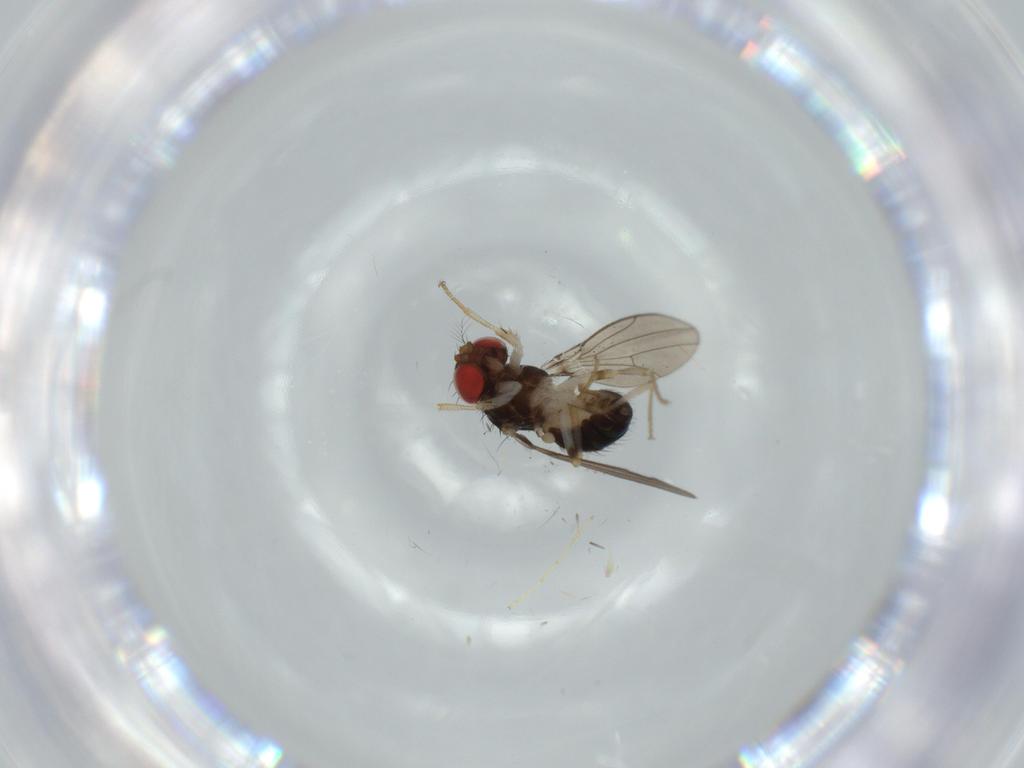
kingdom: Animalia
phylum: Arthropoda
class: Insecta
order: Diptera
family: Drosophilidae
